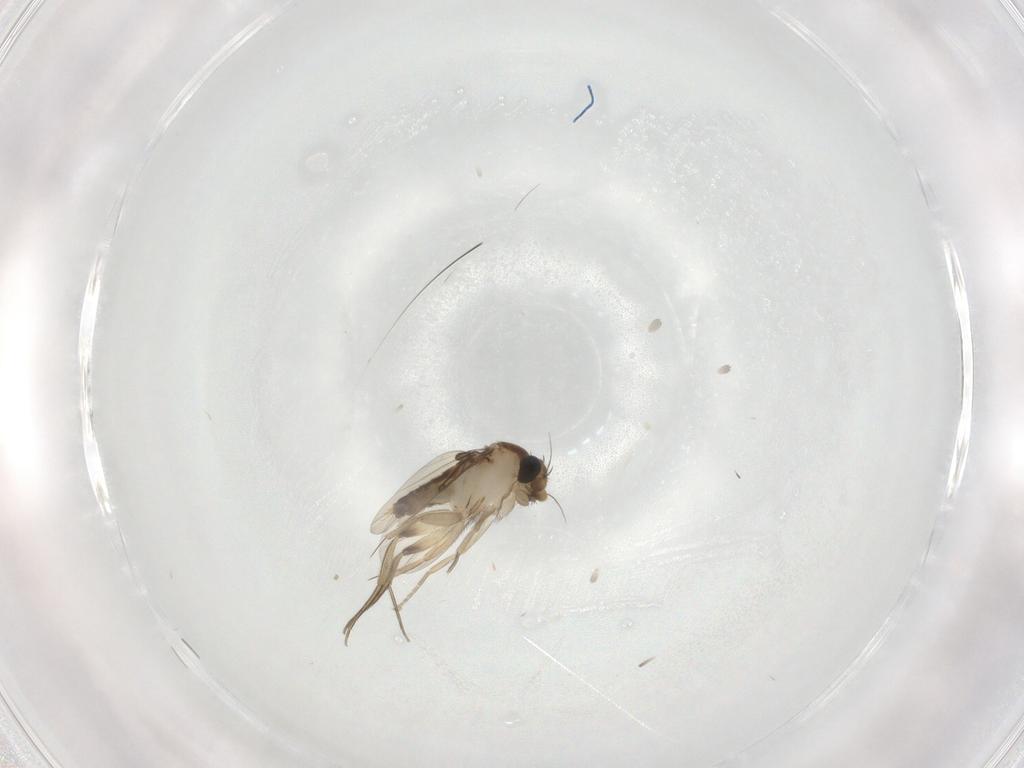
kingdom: Animalia
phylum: Arthropoda
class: Insecta
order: Diptera
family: Phoridae
